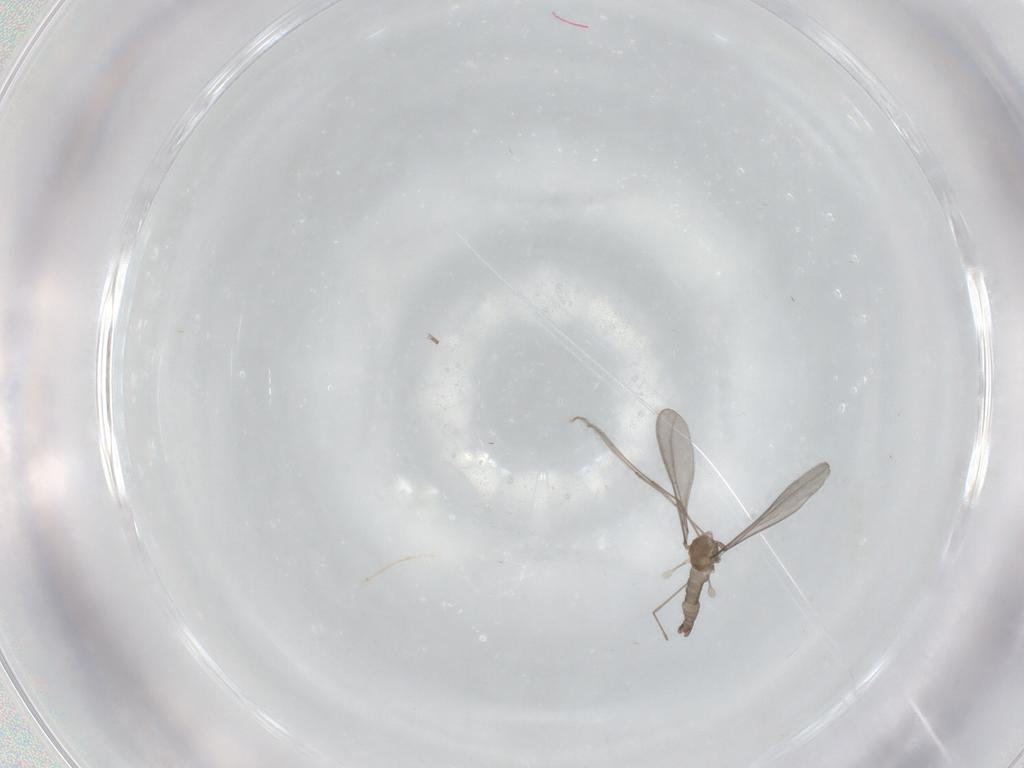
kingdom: Animalia
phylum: Arthropoda
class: Insecta
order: Diptera
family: Cecidomyiidae
